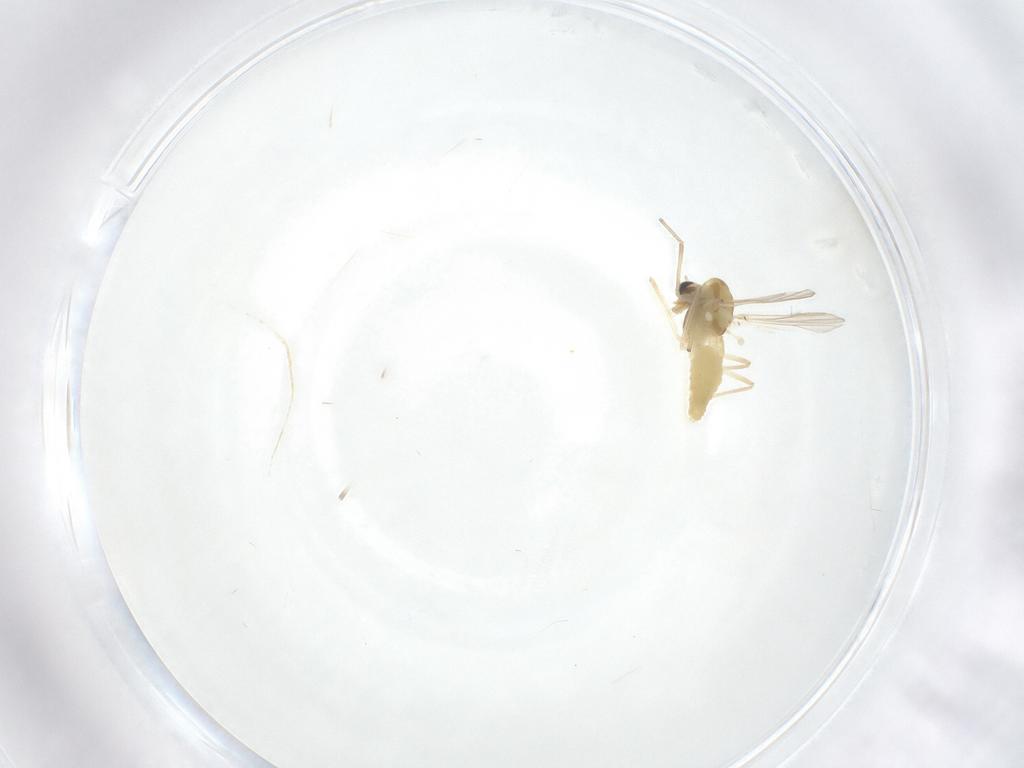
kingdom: Animalia
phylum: Arthropoda
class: Insecta
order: Diptera
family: Chironomidae
